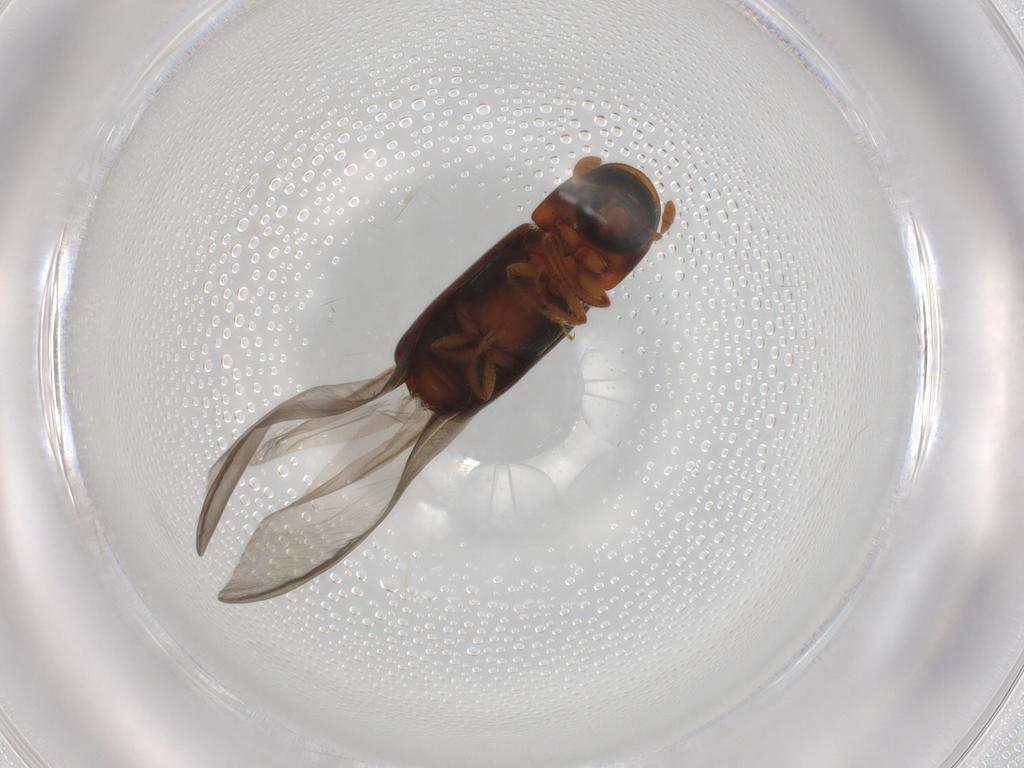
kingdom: Animalia
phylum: Arthropoda
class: Insecta
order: Coleoptera
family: Curculionidae
